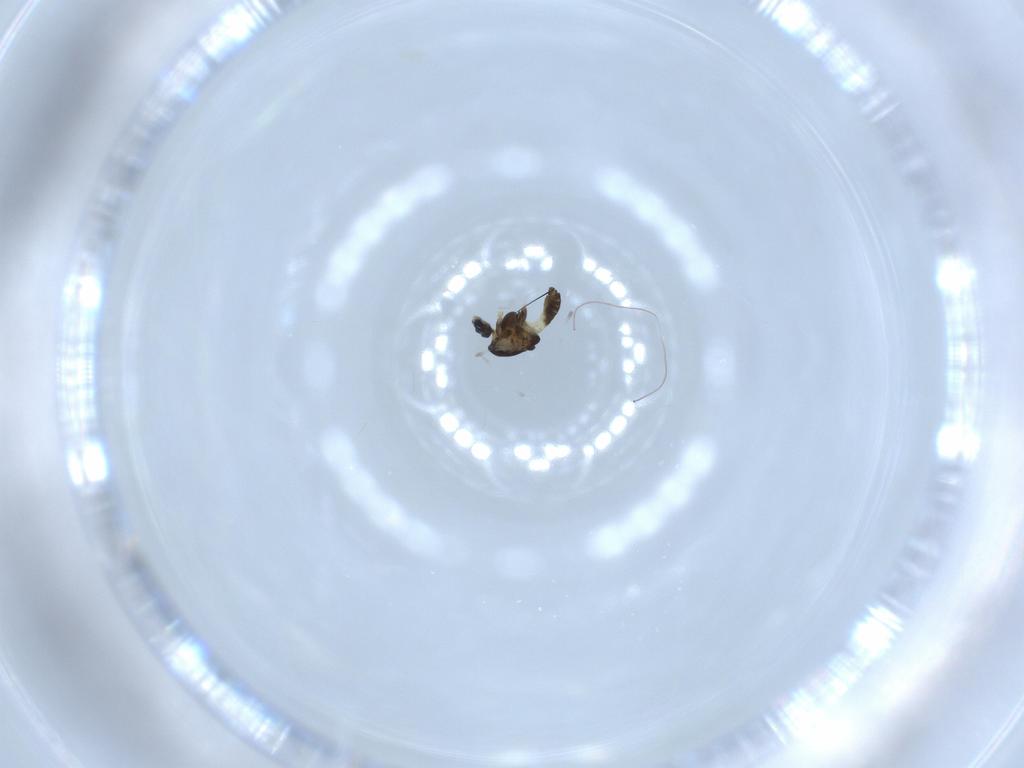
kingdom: Animalia
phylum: Arthropoda
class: Insecta
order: Diptera
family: Chironomidae
